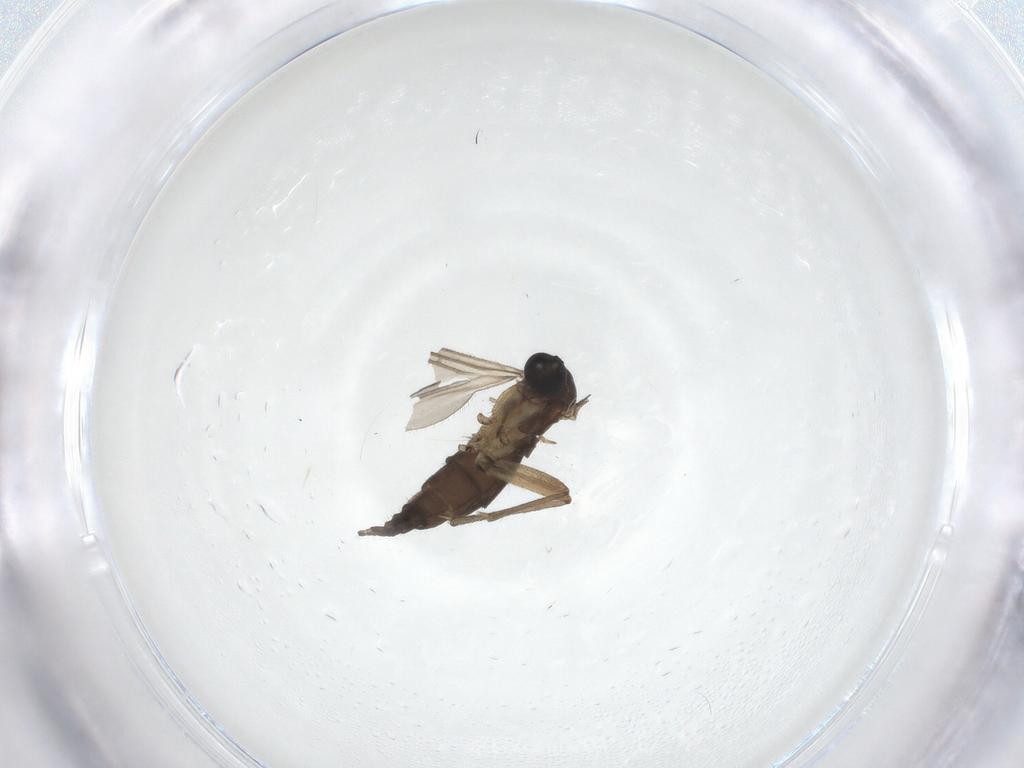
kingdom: Animalia
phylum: Arthropoda
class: Insecta
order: Diptera
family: Sciaridae
